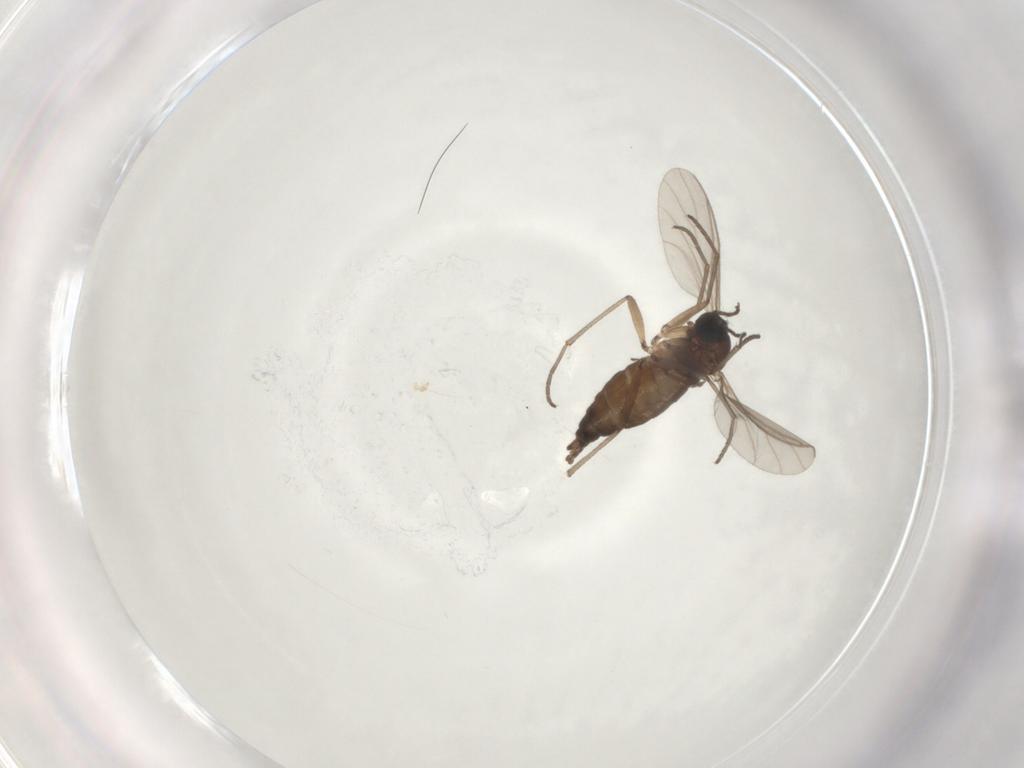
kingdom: Animalia
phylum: Arthropoda
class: Insecta
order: Diptera
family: Sciaridae
